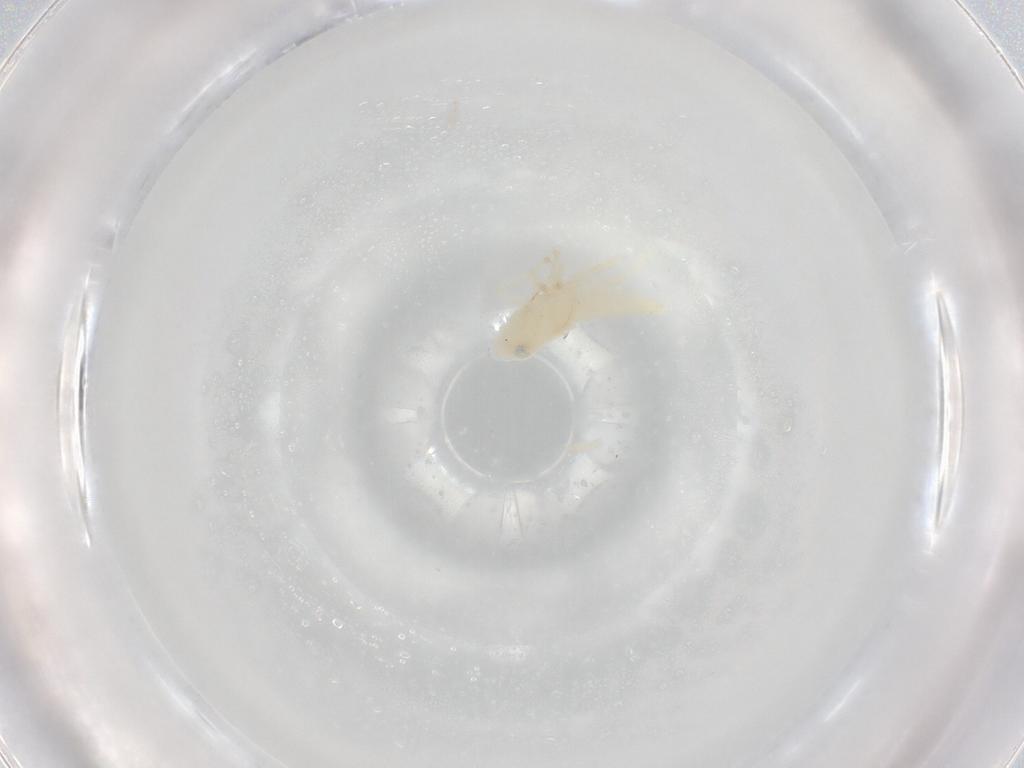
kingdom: Animalia
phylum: Arthropoda
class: Insecta
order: Hemiptera
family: Cicadellidae
